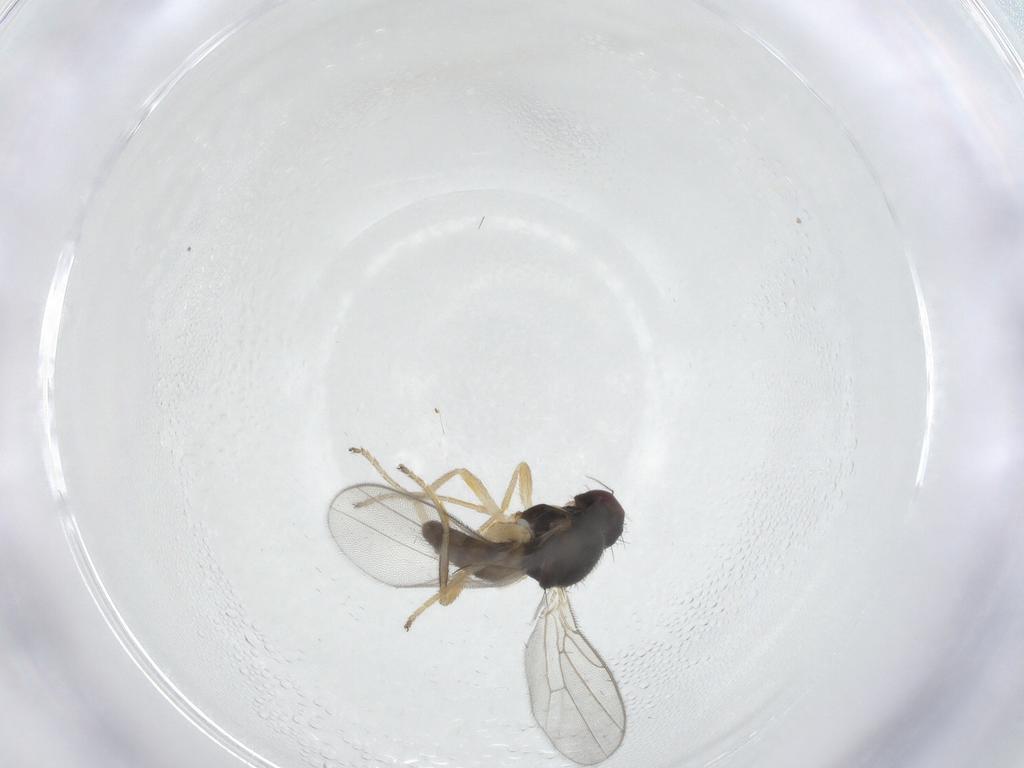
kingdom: Animalia
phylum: Arthropoda
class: Insecta
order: Diptera
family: Chloropidae
